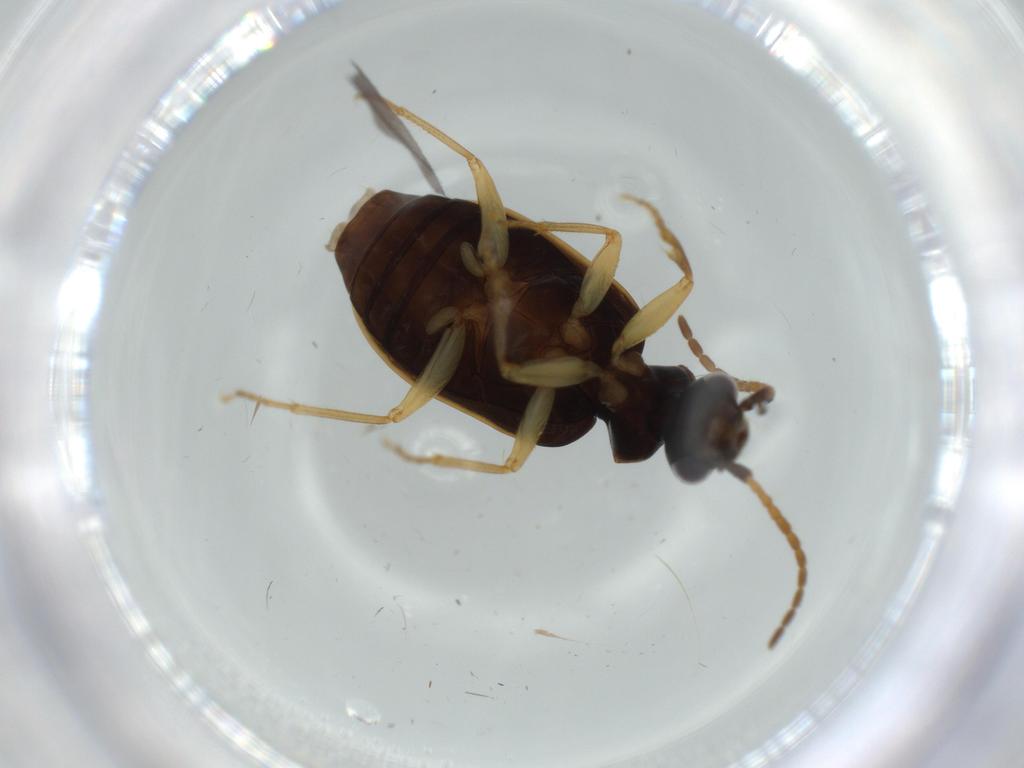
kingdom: Animalia
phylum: Arthropoda
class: Insecta
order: Coleoptera
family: Carabidae
